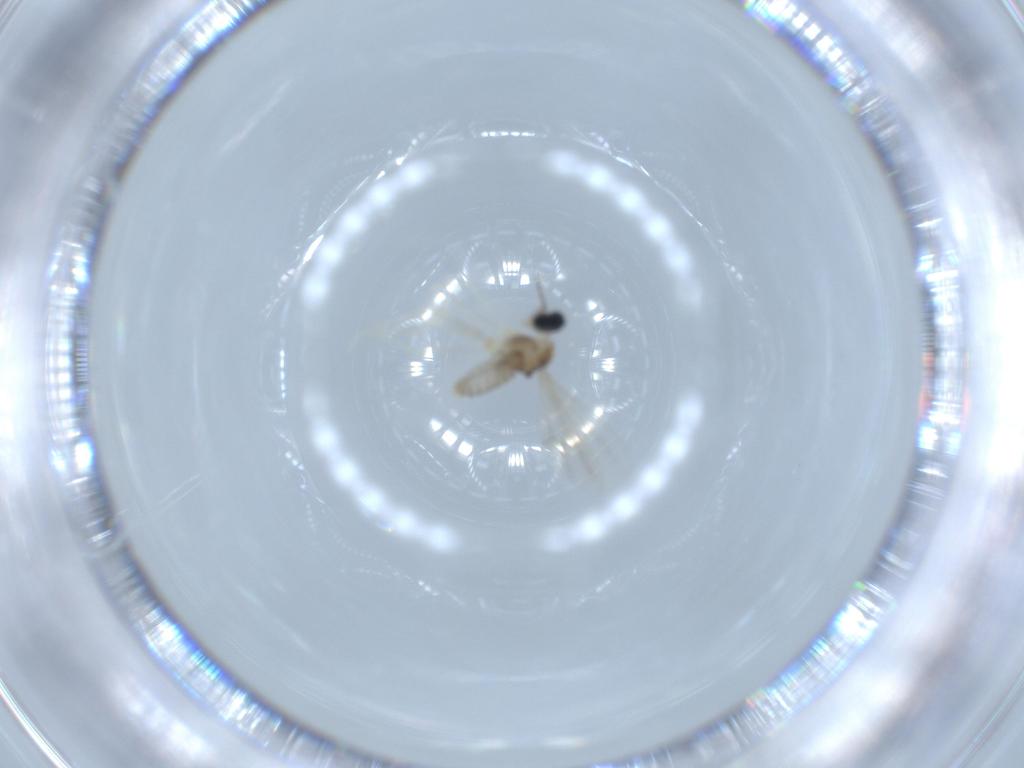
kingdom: Animalia
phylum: Arthropoda
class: Insecta
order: Diptera
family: Cecidomyiidae
